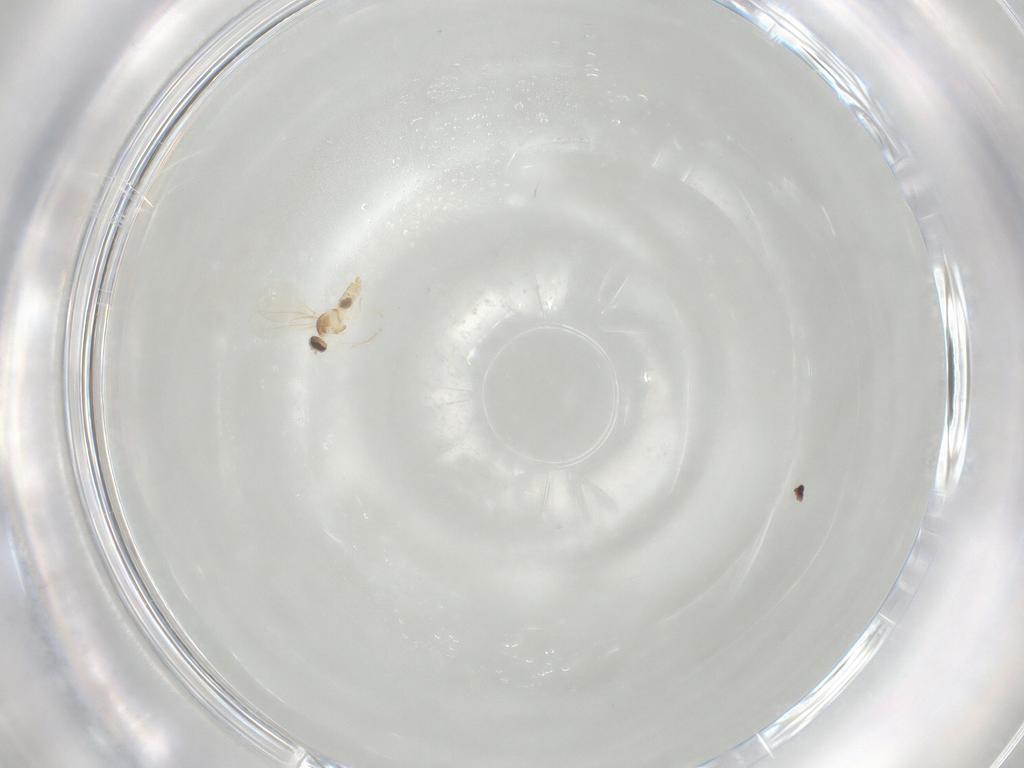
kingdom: Animalia
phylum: Arthropoda
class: Insecta
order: Diptera
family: Cecidomyiidae
